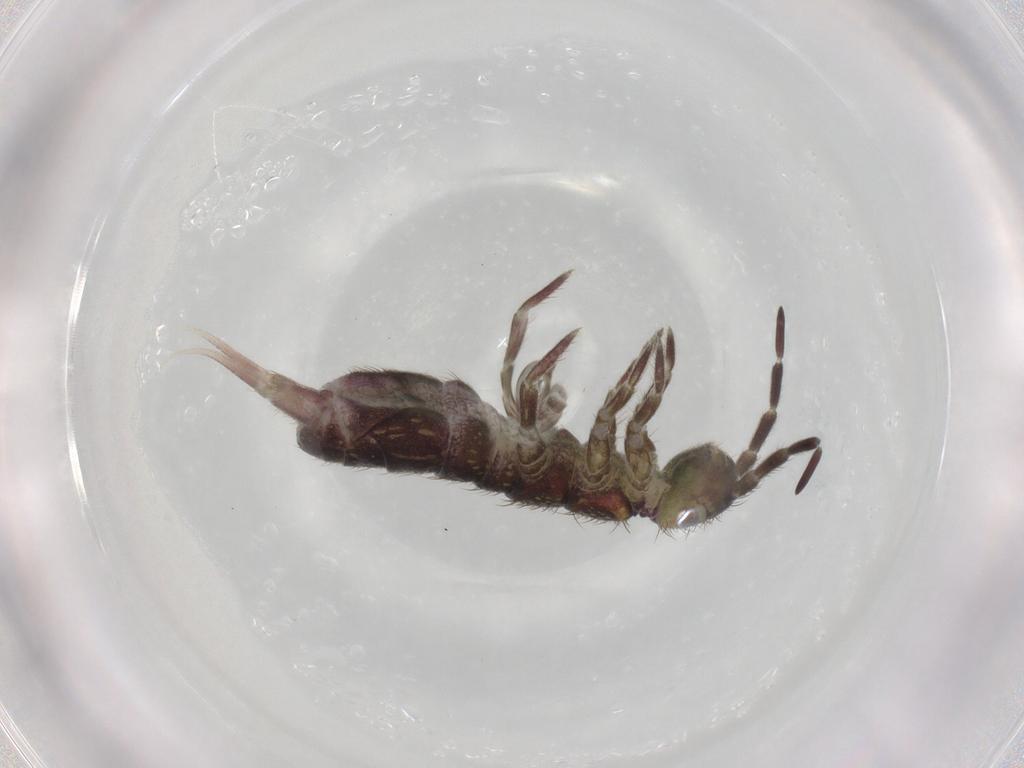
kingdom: Animalia
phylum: Arthropoda
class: Collembola
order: Entomobryomorpha
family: Isotomidae
